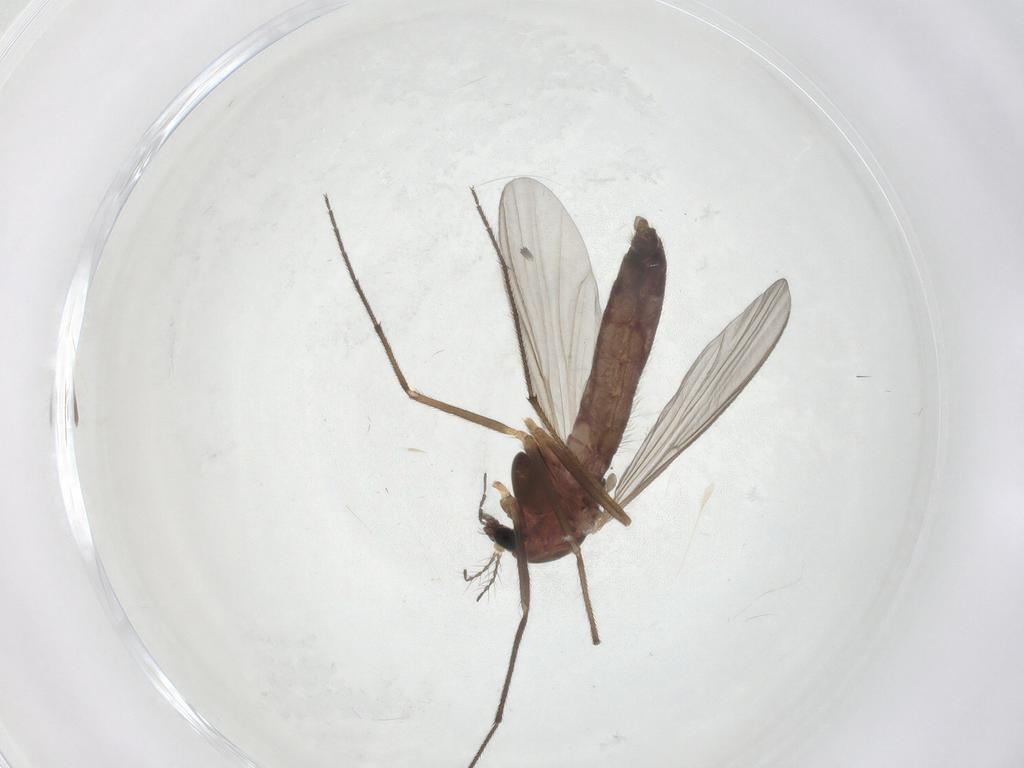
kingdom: Animalia
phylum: Arthropoda
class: Insecta
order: Diptera
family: Chironomidae
